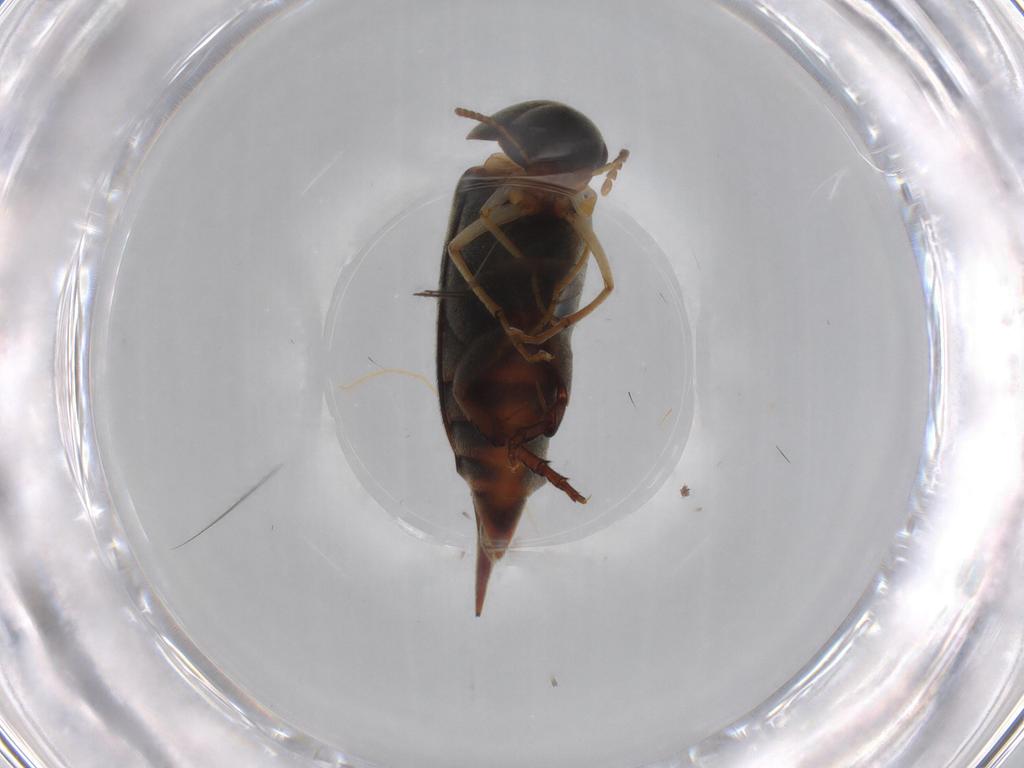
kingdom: Animalia
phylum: Arthropoda
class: Insecta
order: Coleoptera
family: Mordellidae
